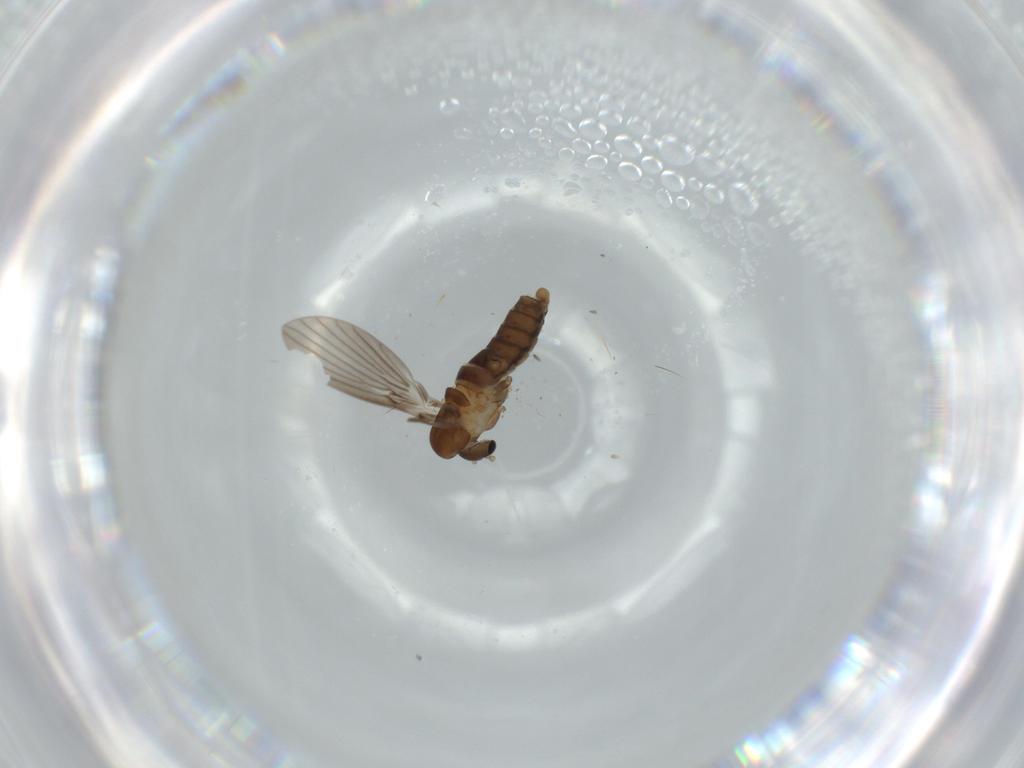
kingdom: Animalia
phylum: Arthropoda
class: Insecta
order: Diptera
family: Psychodidae
